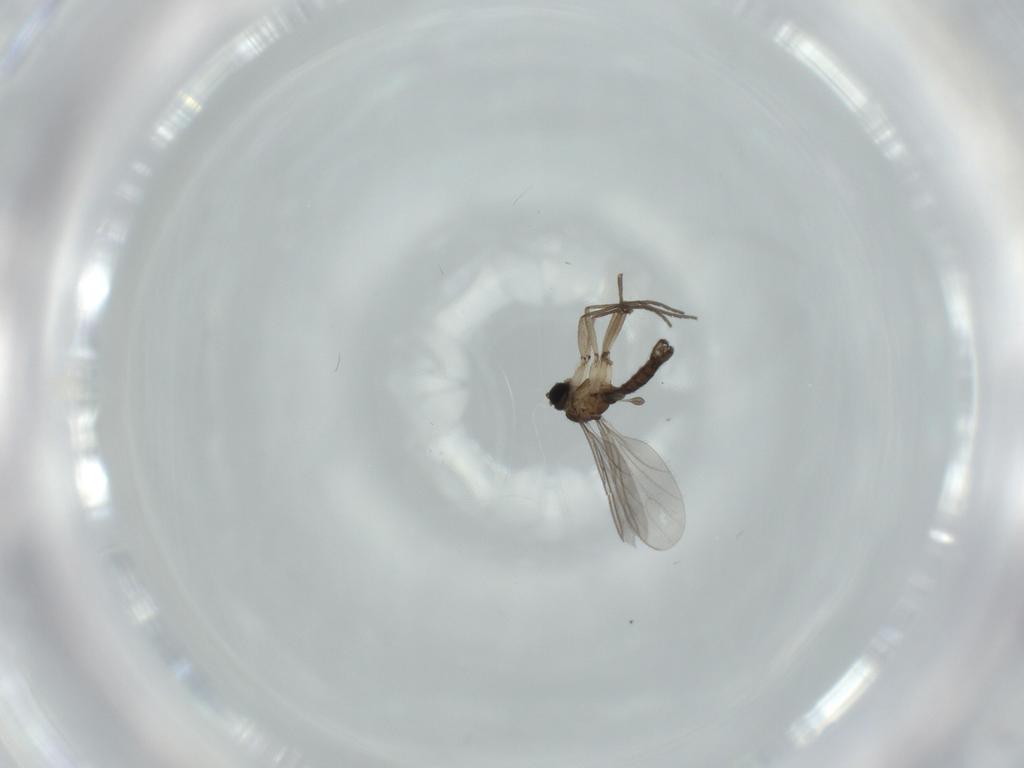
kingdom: Animalia
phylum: Arthropoda
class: Insecta
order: Diptera
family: Sciaridae
